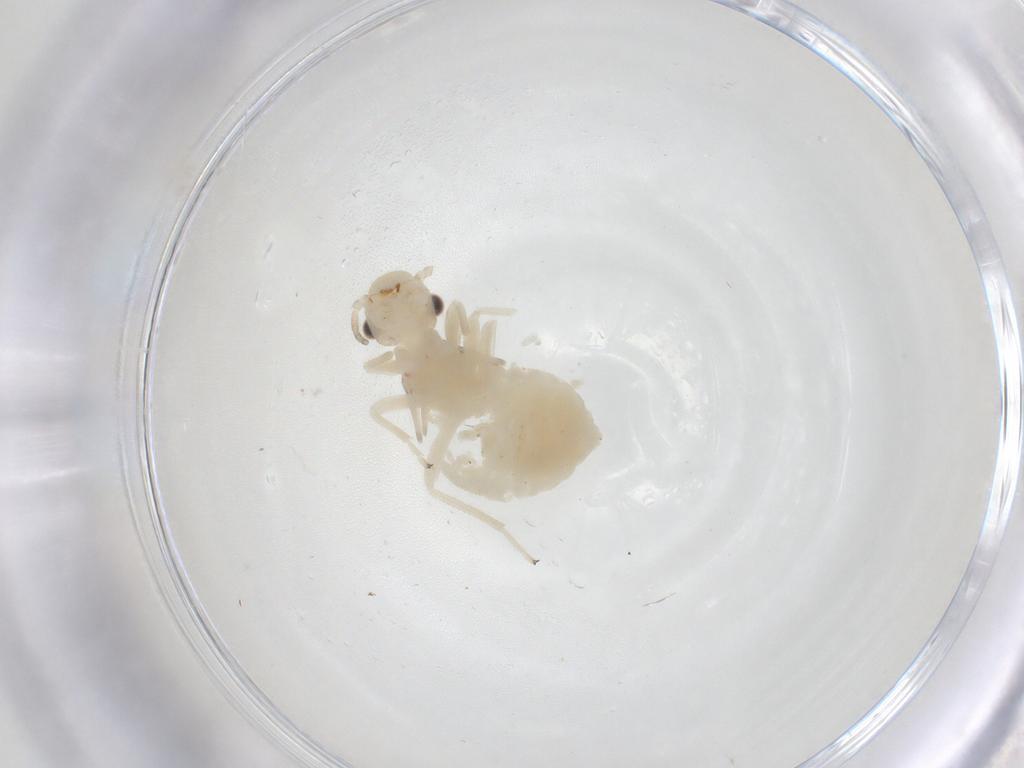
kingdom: Animalia
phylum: Arthropoda
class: Insecta
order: Psocodea
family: Amphipsocidae
